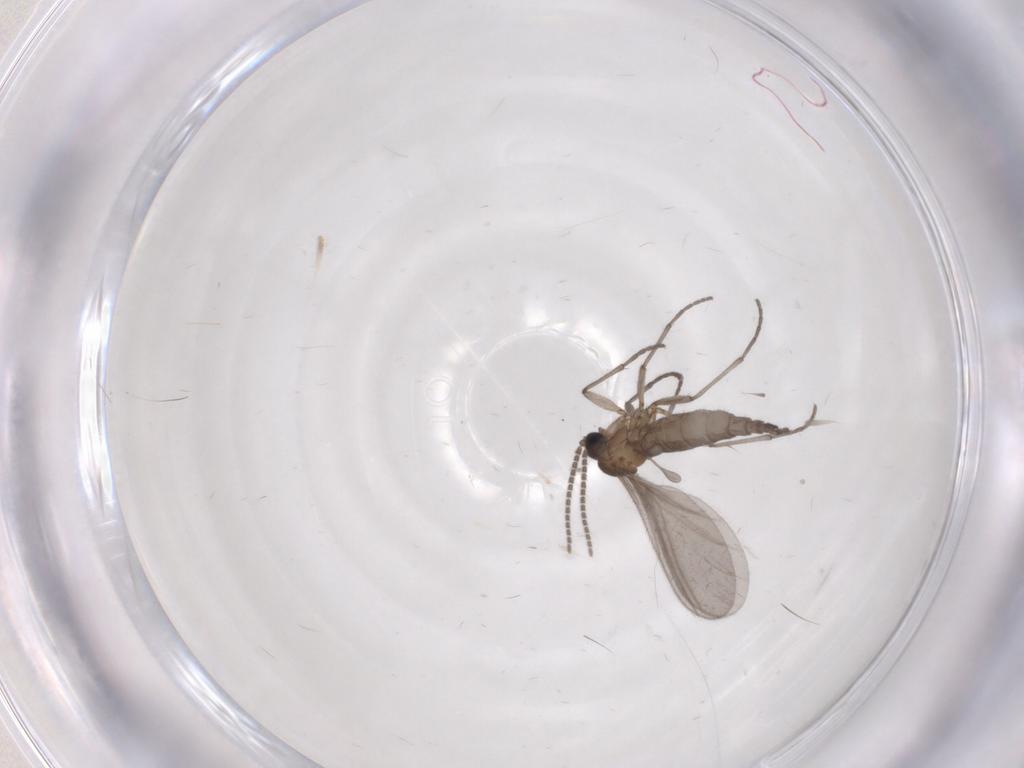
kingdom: Animalia
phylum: Arthropoda
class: Insecta
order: Diptera
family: Sciaridae
